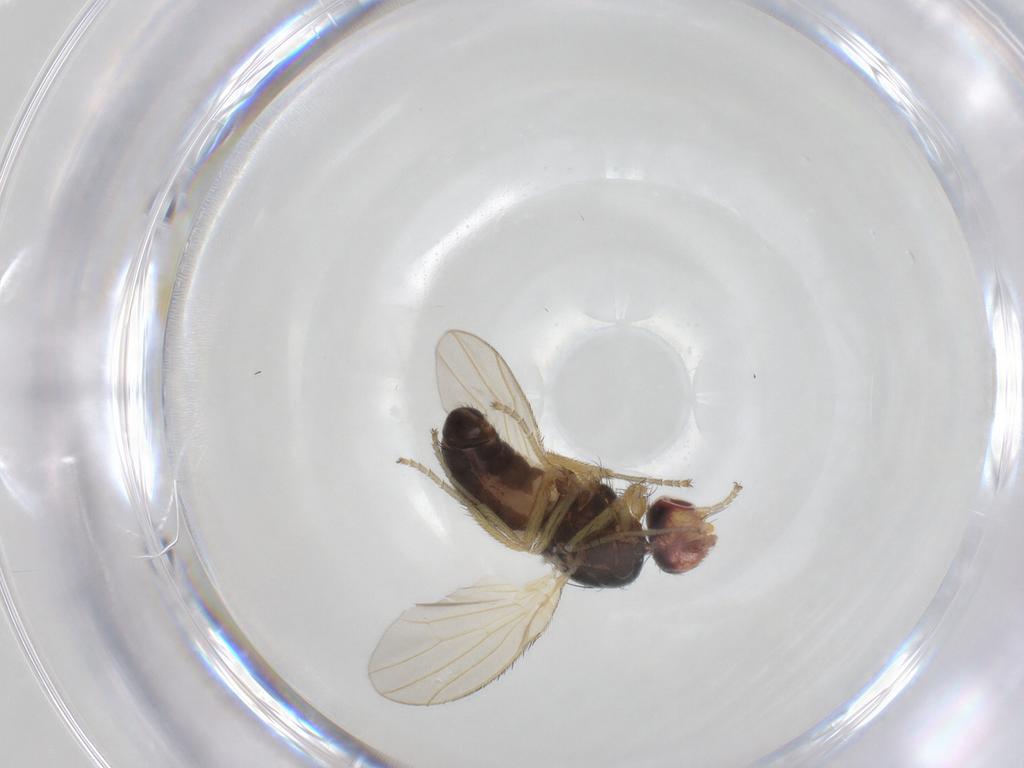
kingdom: Animalia
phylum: Arthropoda
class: Insecta
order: Diptera
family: Heleomyzidae
